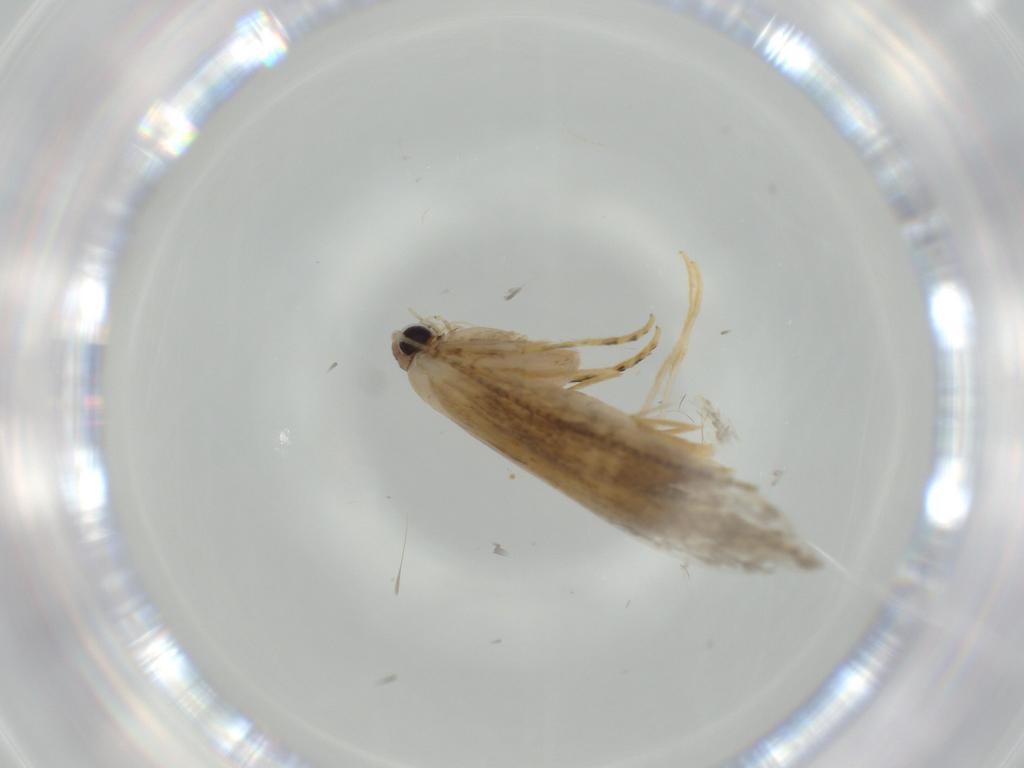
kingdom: Animalia
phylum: Arthropoda
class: Insecta
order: Lepidoptera
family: Tineidae
